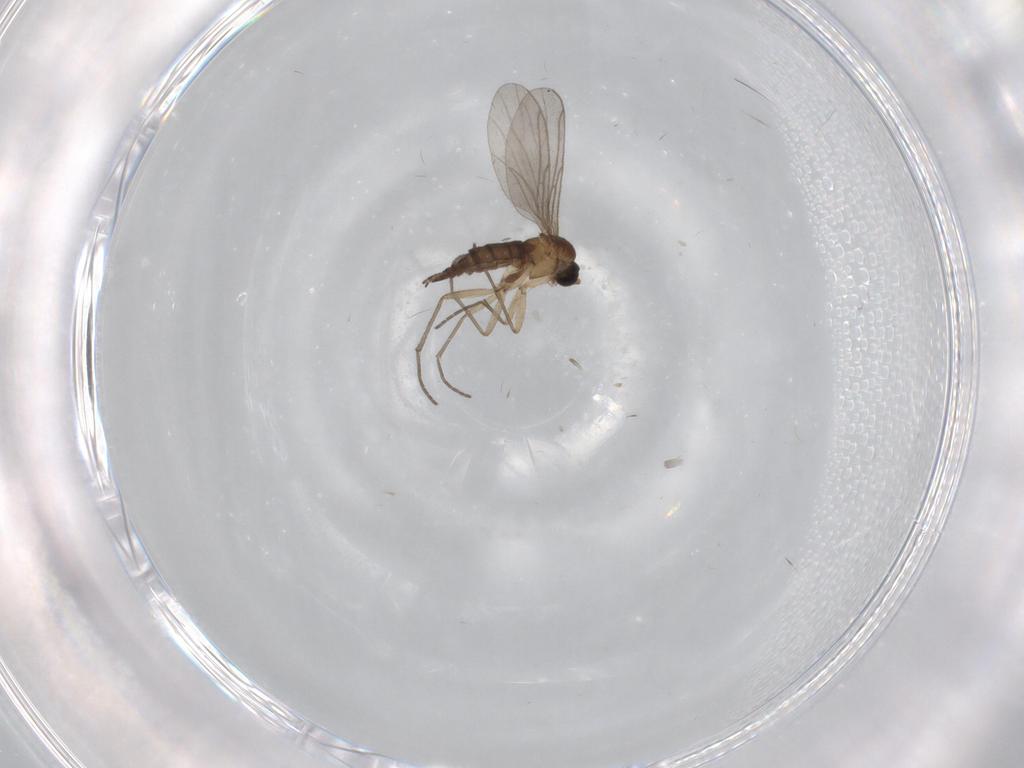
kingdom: Animalia
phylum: Arthropoda
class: Insecta
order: Diptera
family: Sciaridae
